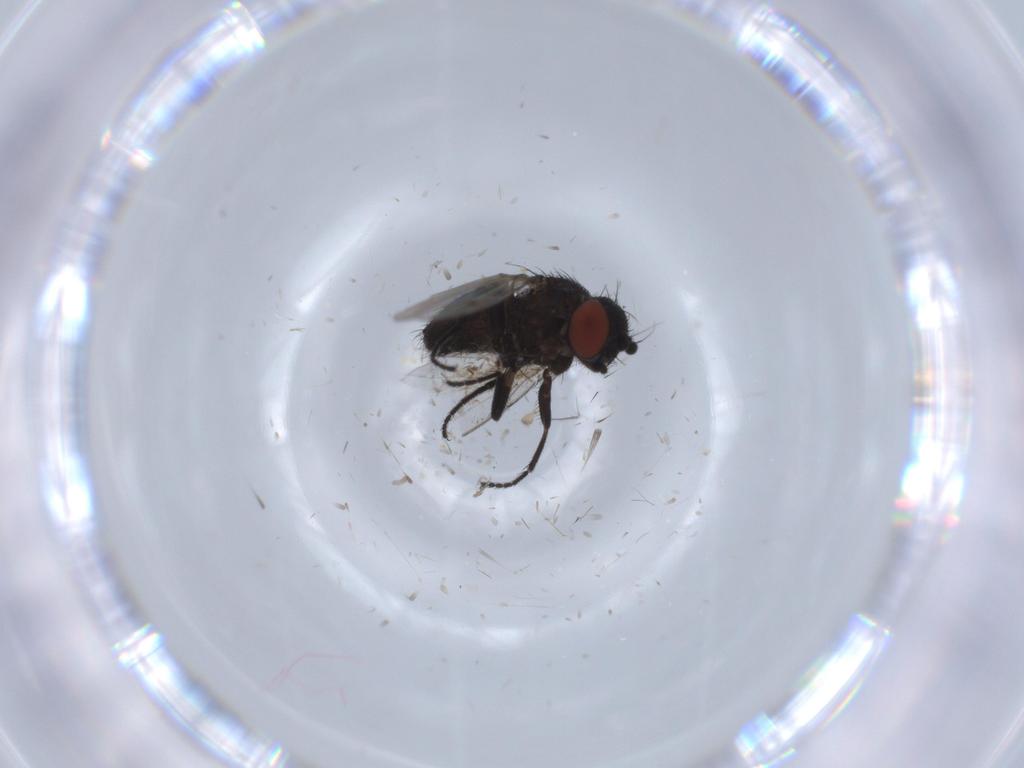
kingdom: Animalia
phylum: Arthropoda
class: Insecta
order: Diptera
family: Milichiidae
